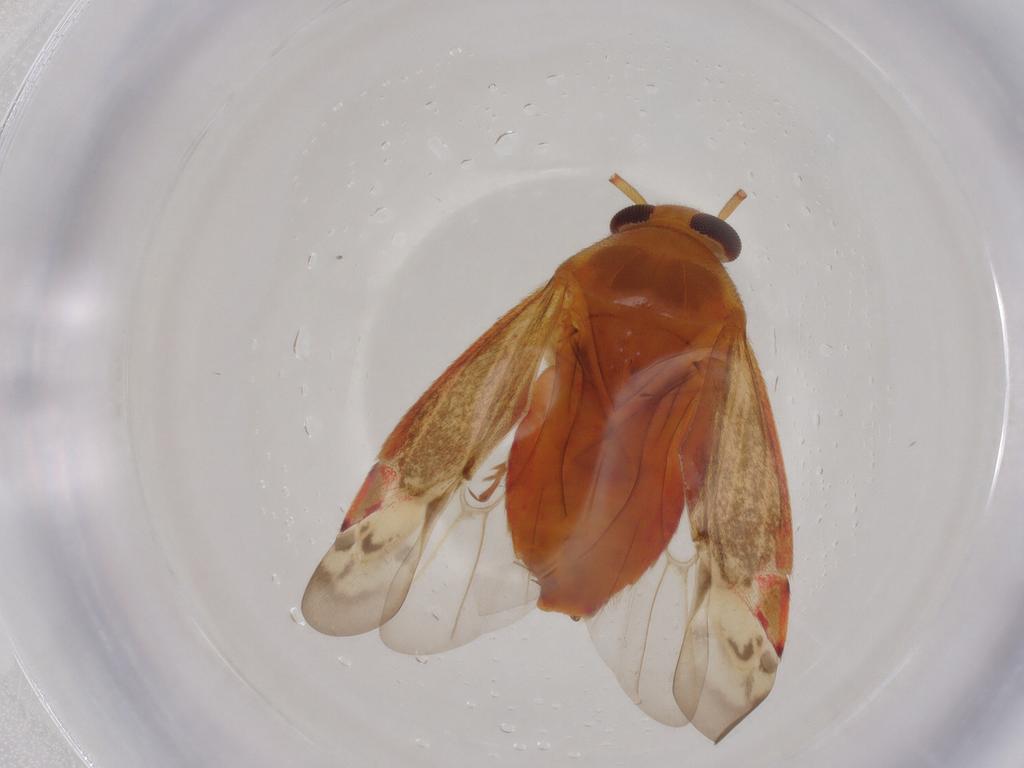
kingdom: Animalia
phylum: Arthropoda
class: Insecta
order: Hemiptera
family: Miridae
